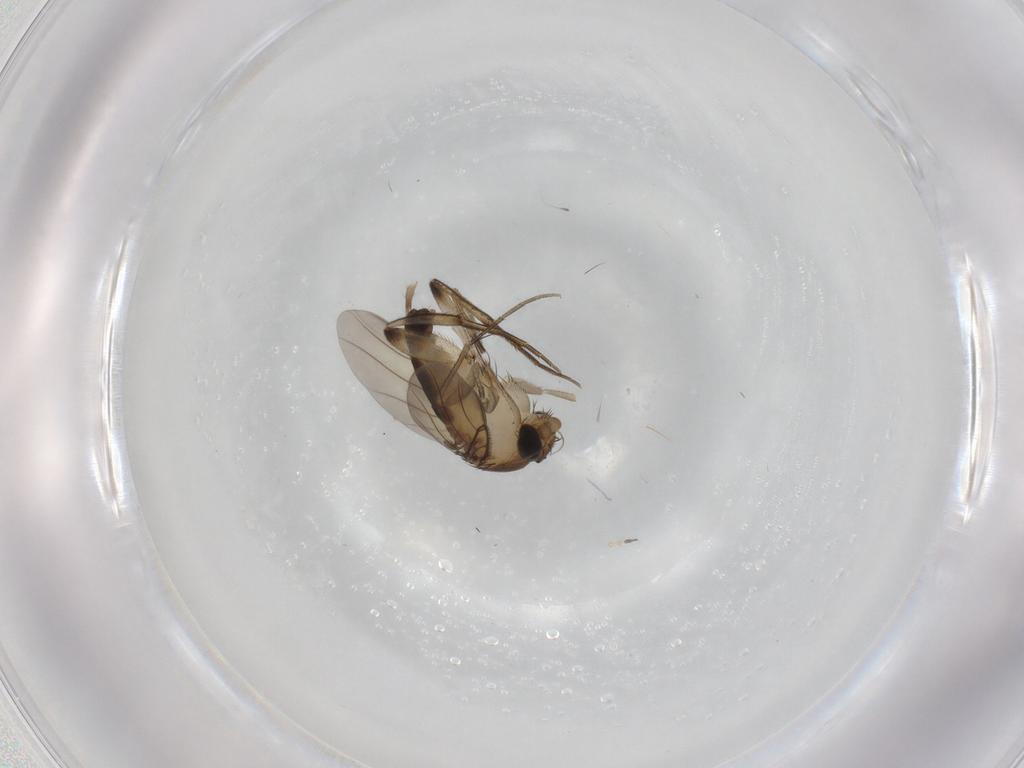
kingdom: Animalia
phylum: Arthropoda
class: Insecta
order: Diptera
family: Phoridae
